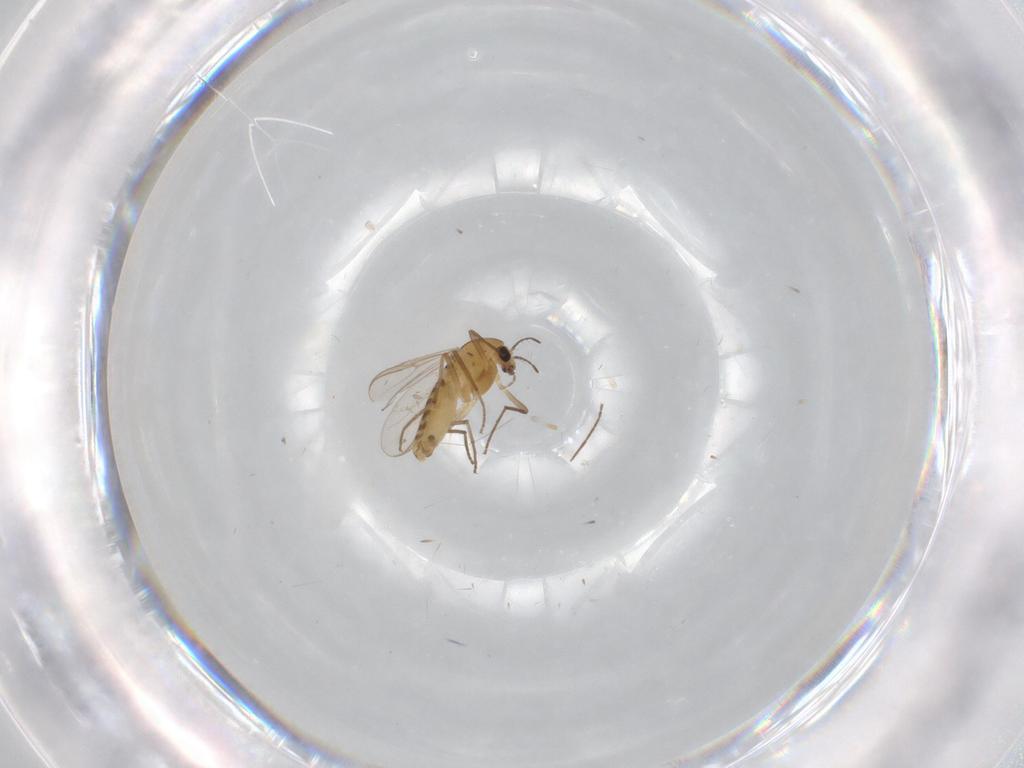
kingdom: Animalia
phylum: Arthropoda
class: Insecta
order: Diptera
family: Chironomidae
